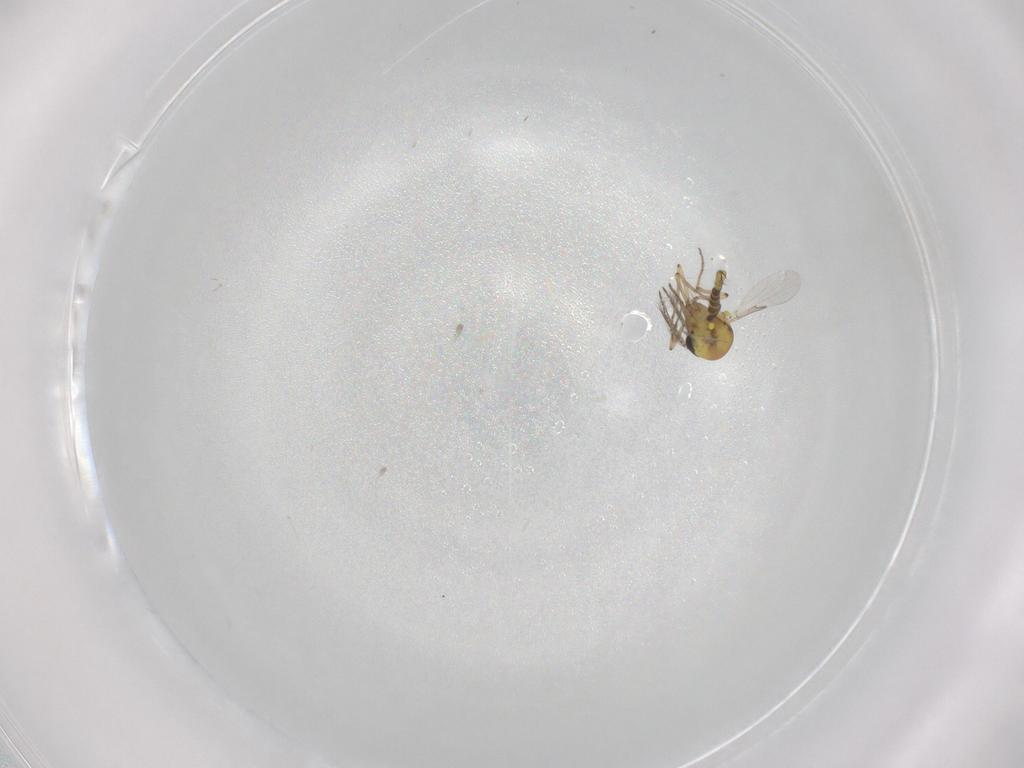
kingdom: Animalia
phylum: Arthropoda
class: Insecta
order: Diptera
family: Ceratopogonidae
